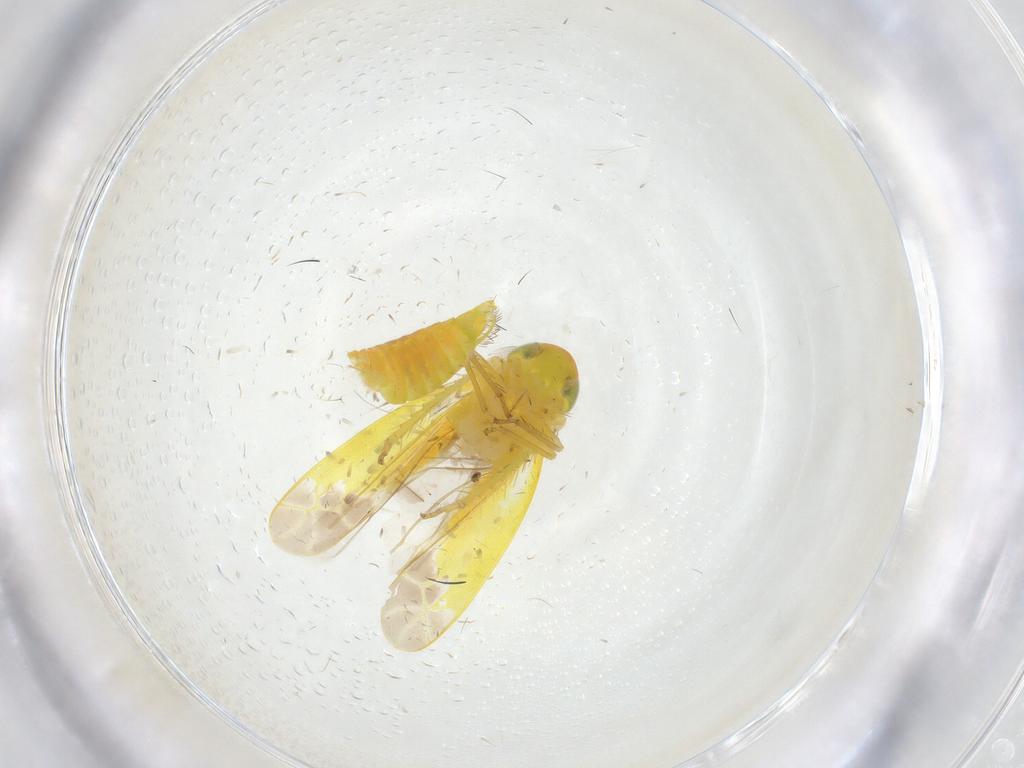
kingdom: Animalia
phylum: Arthropoda
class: Insecta
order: Hemiptera
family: Cicadellidae
